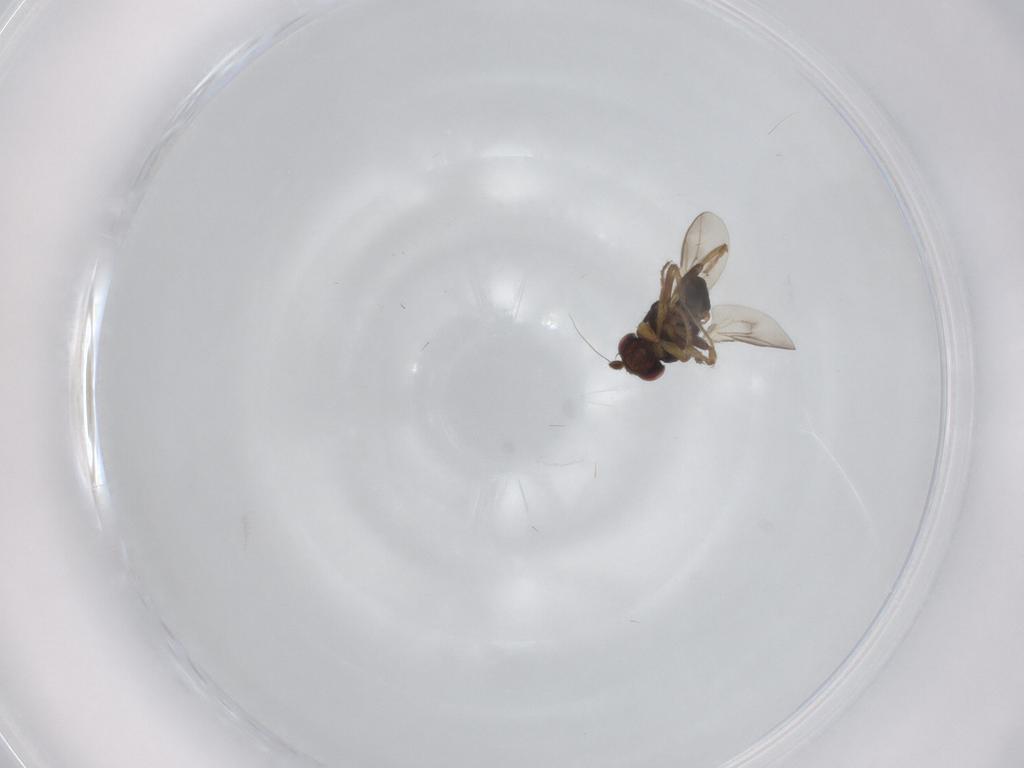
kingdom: Animalia
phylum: Arthropoda
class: Insecta
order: Diptera
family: Sphaeroceridae
